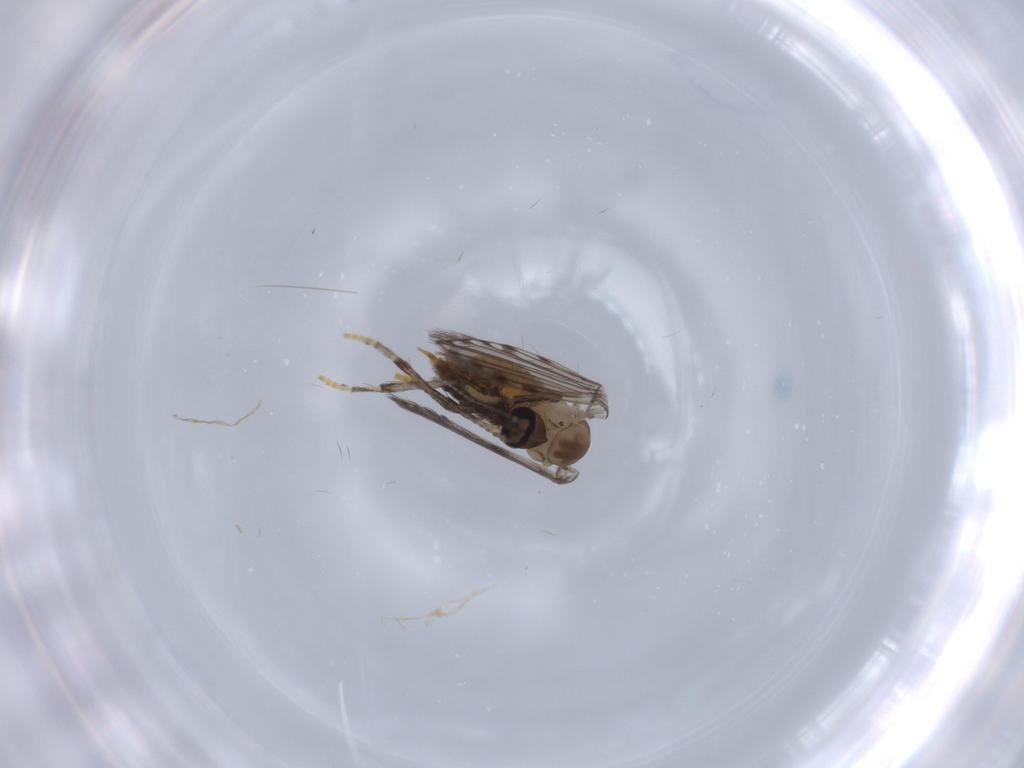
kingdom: Animalia
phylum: Arthropoda
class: Insecta
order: Diptera
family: Psychodidae
